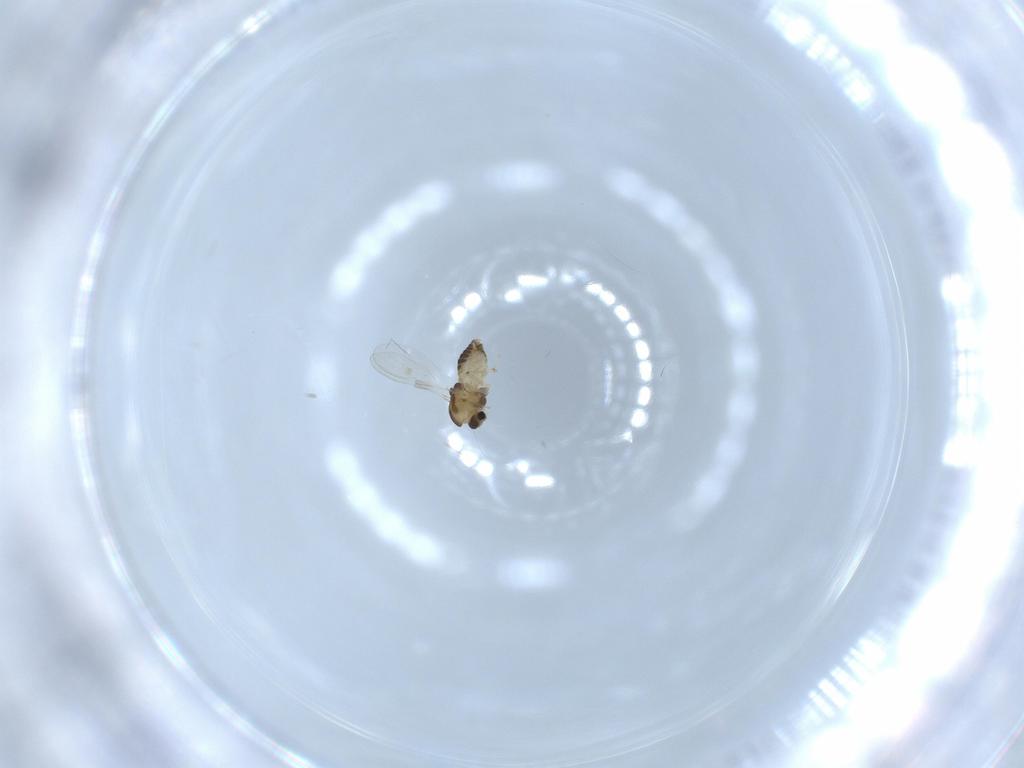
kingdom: Animalia
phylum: Arthropoda
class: Insecta
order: Diptera
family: Chironomidae
